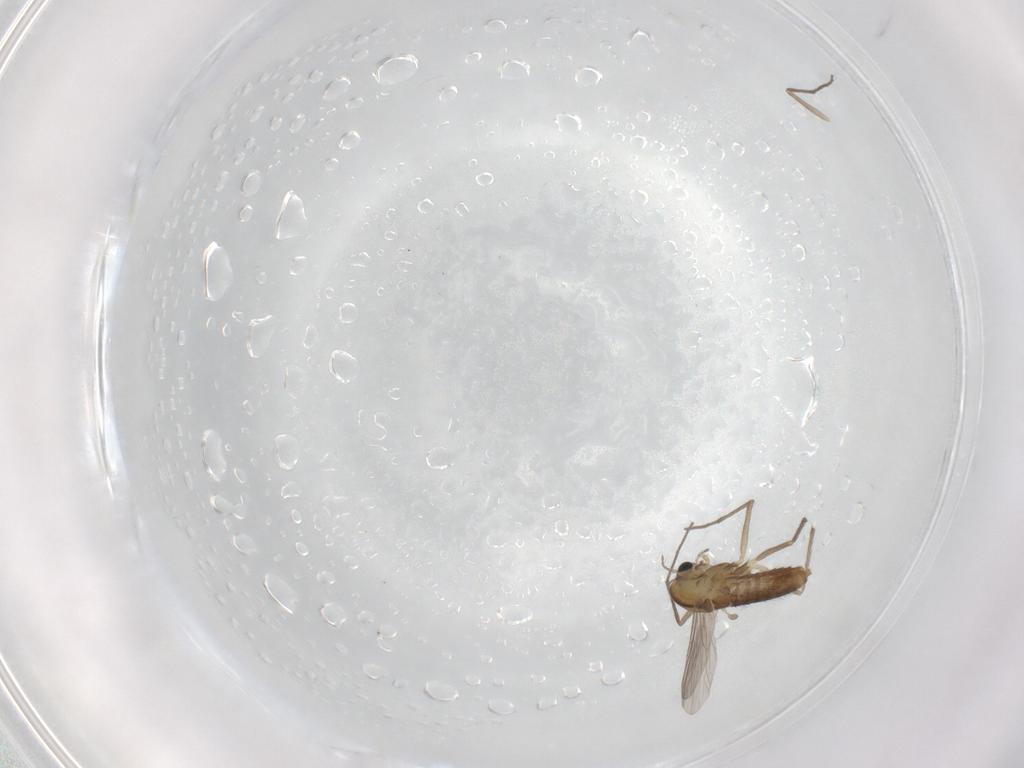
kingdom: Animalia
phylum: Arthropoda
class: Insecta
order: Diptera
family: Chironomidae
